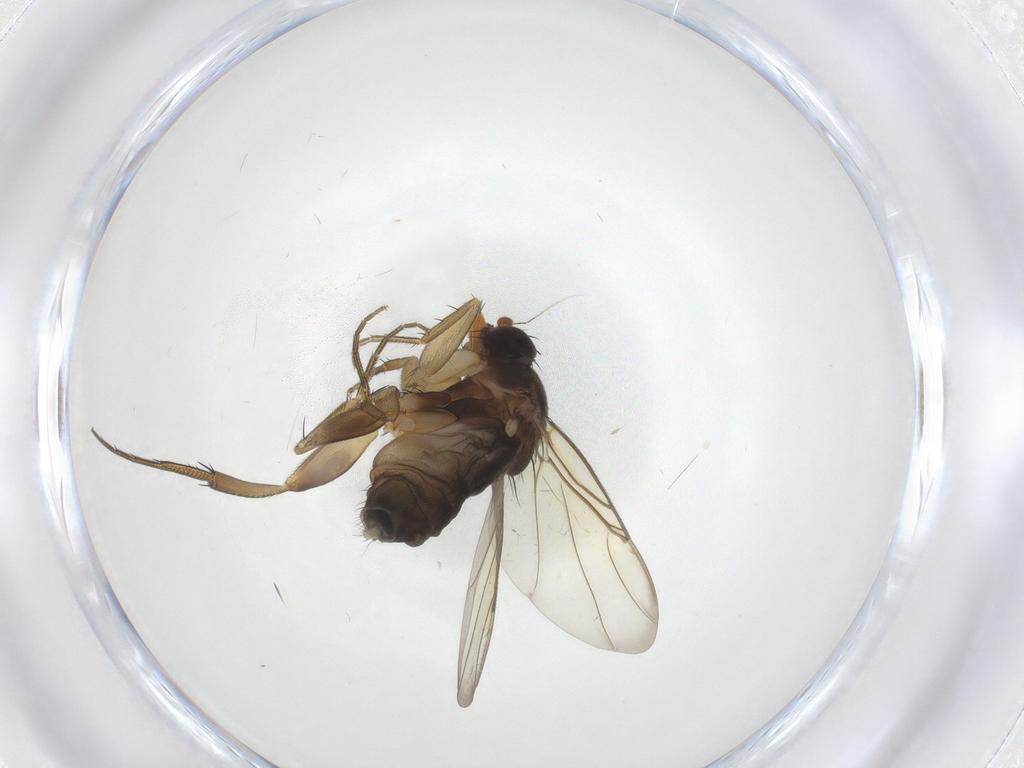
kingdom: Animalia
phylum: Arthropoda
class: Insecta
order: Diptera
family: Phoridae
